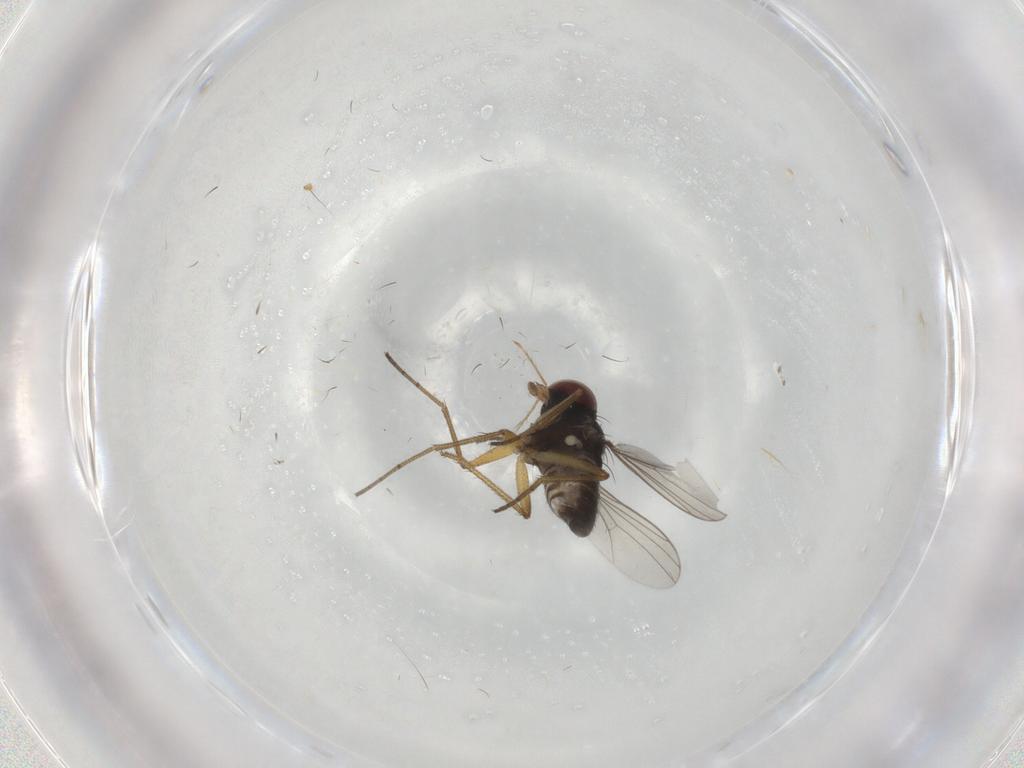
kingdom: Animalia
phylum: Arthropoda
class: Insecta
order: Diptera
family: Dolichopodidae
